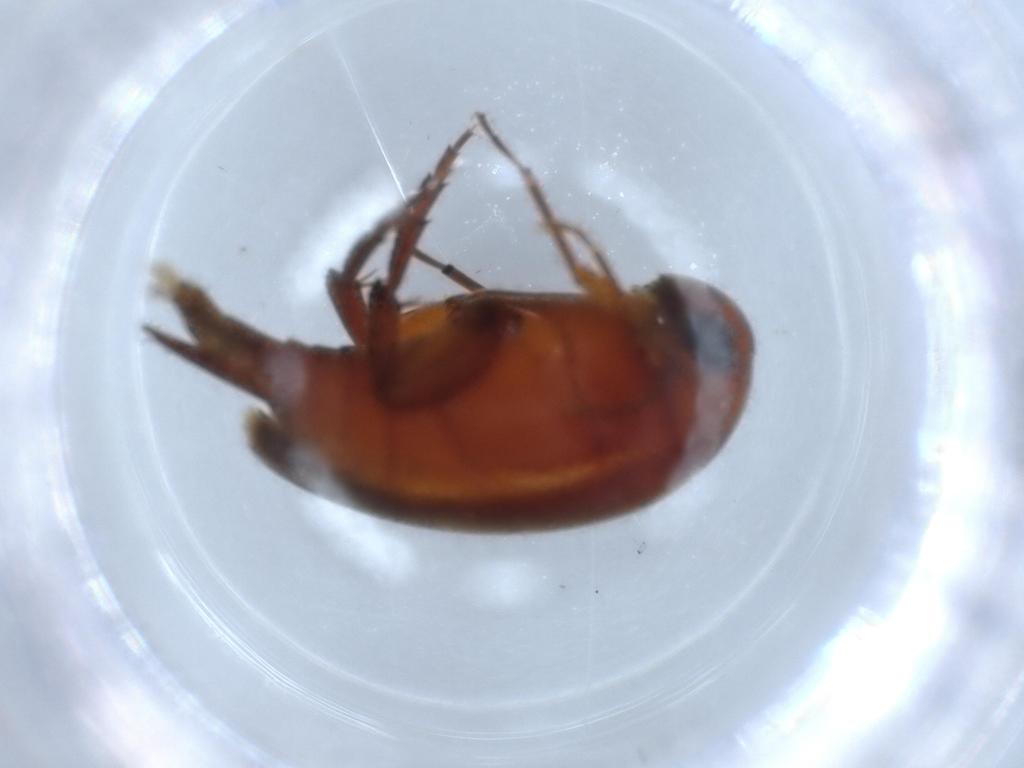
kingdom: Animalia
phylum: Arthropoda
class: Insecta
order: Coleoptera
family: Mordellidae
